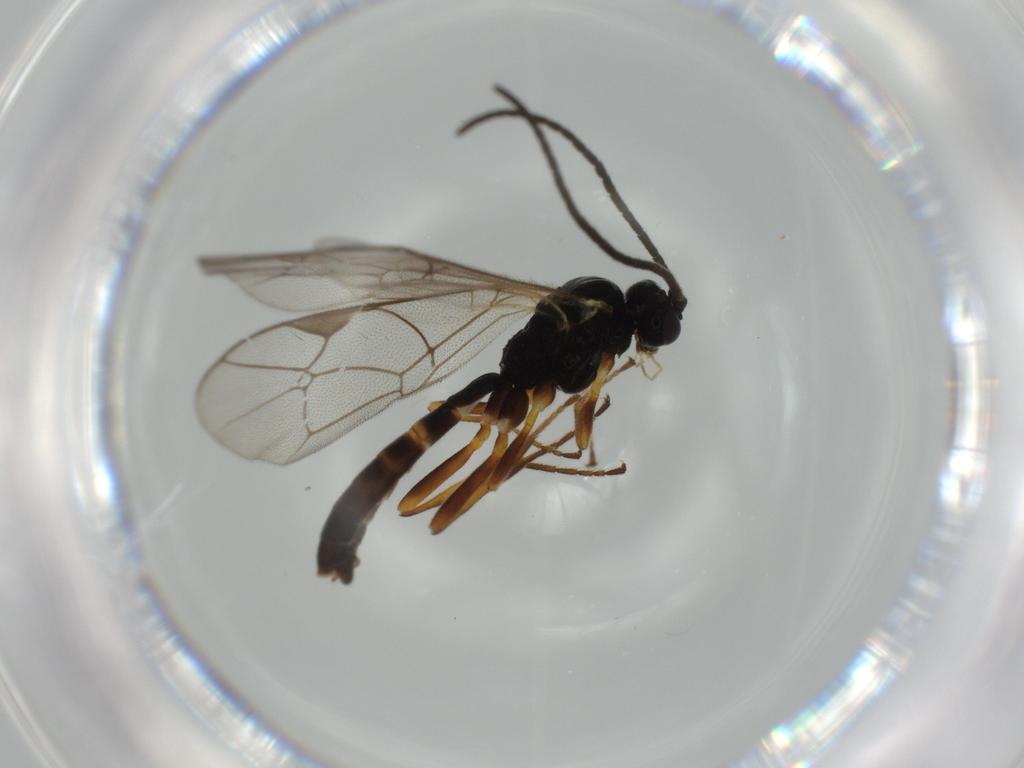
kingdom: Animalia
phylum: Arthropoda
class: Insecta
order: Hymenoptera
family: Ichneumonidae
